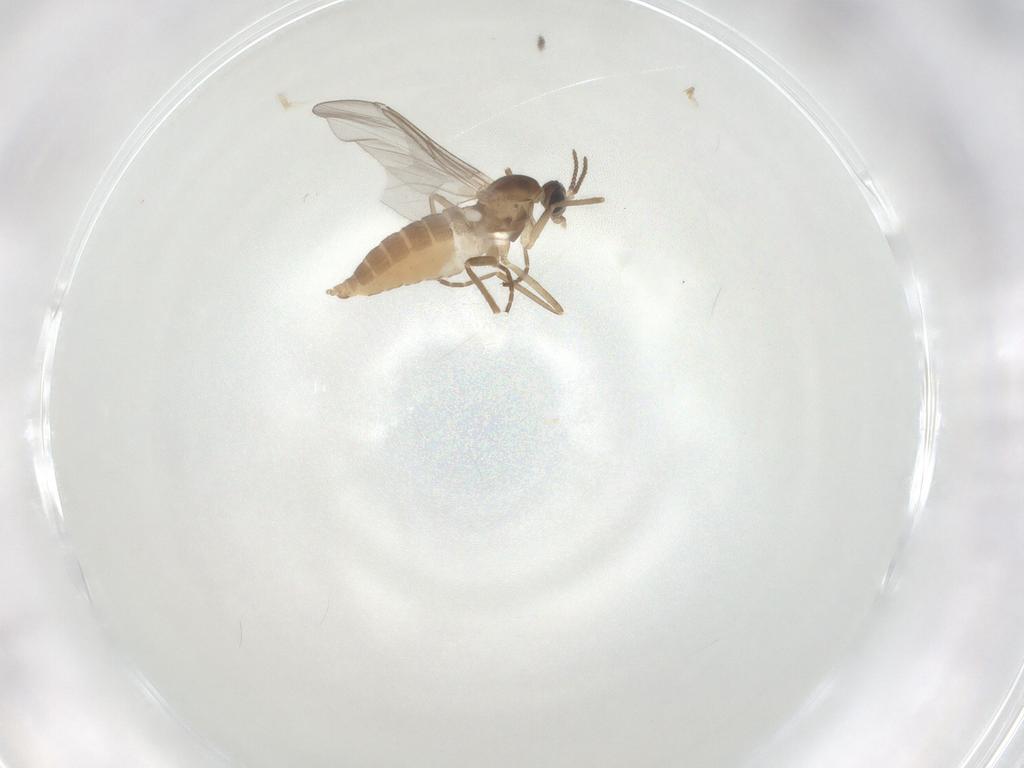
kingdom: Animalia
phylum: Arthropoda
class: Insecta
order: Diptera
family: Cecidomyiidae
